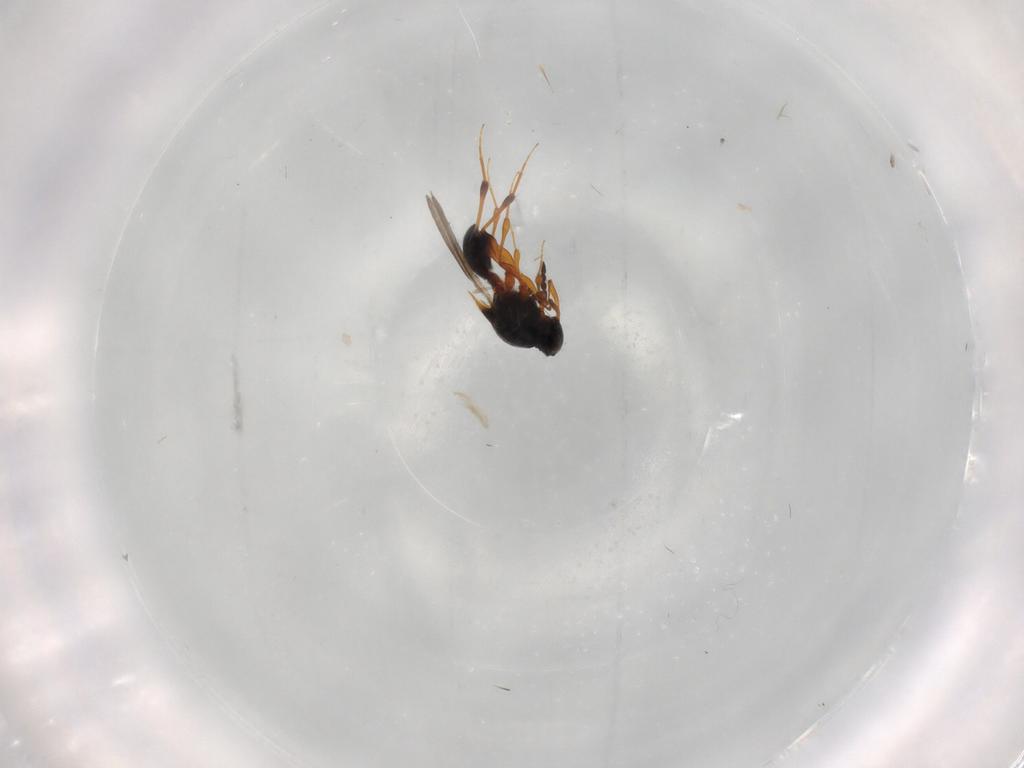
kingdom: Animalia
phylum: Arthropoda
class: Insecta
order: Hymenoptera
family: Platygastridae
